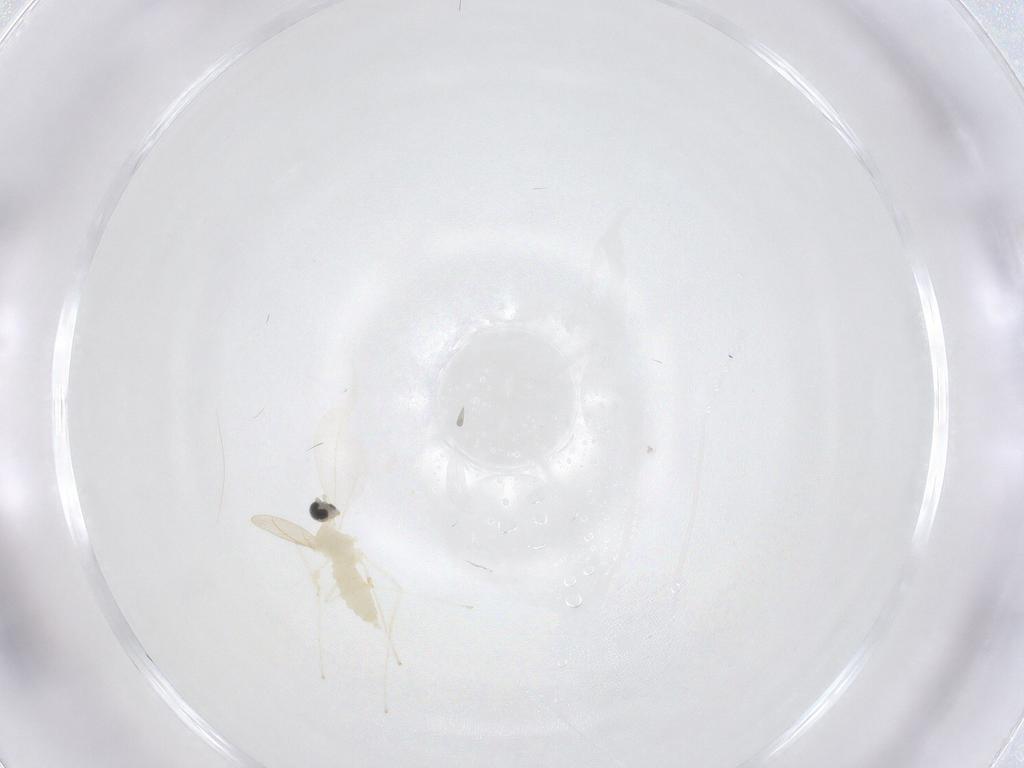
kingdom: Animalia
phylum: Arthropoda
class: Insecta
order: Diptera
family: Cecidomyiidae
